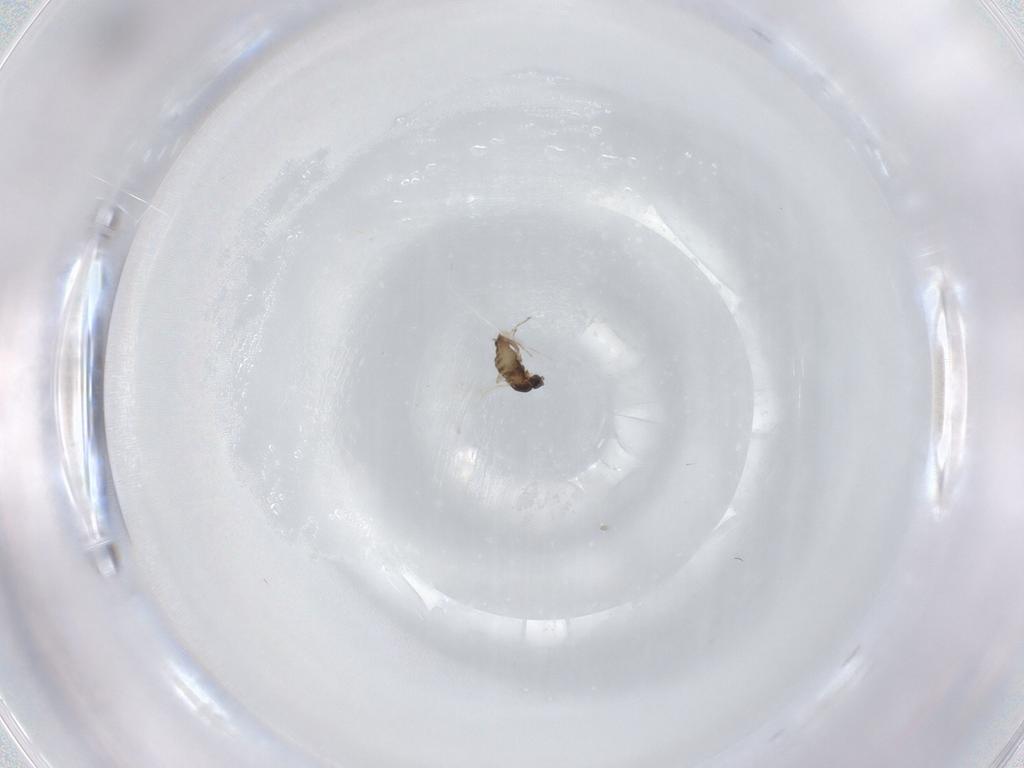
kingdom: Animalia
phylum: Arthropoda
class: Insecta
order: Diptera
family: Cecidomyiidae
